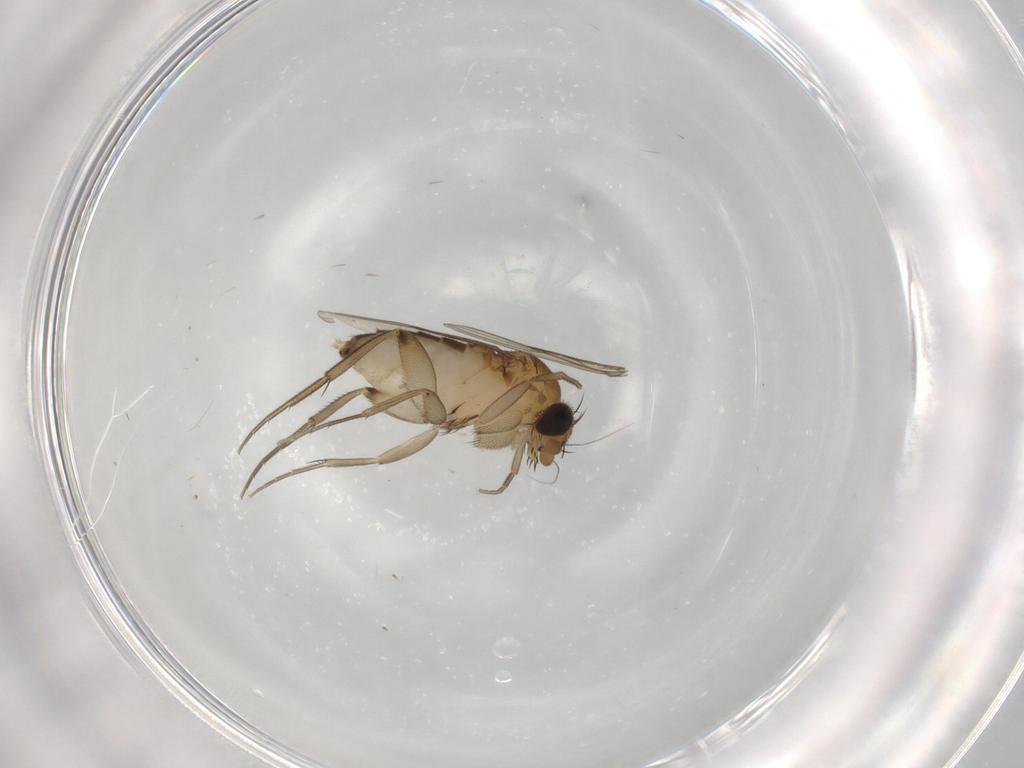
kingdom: Animalia
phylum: Arthropoda
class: Insecta
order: Diptera
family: Phoridae
